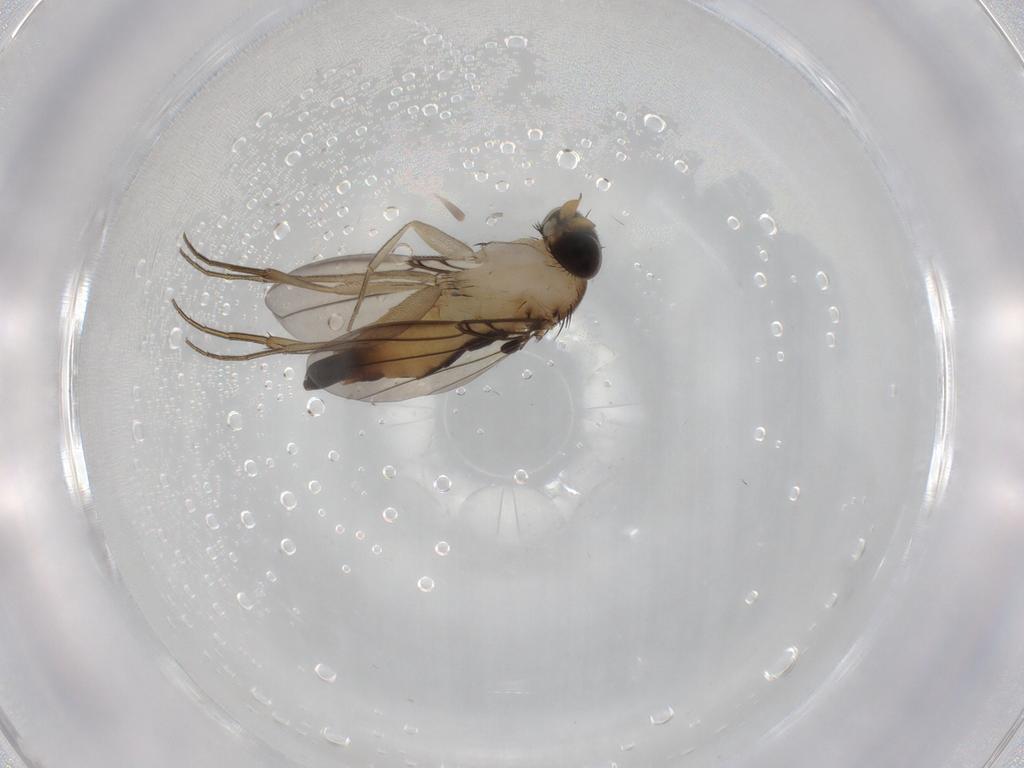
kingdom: Animalia
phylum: Arthropoda
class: Insecta
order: Diptera
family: Phoridae
